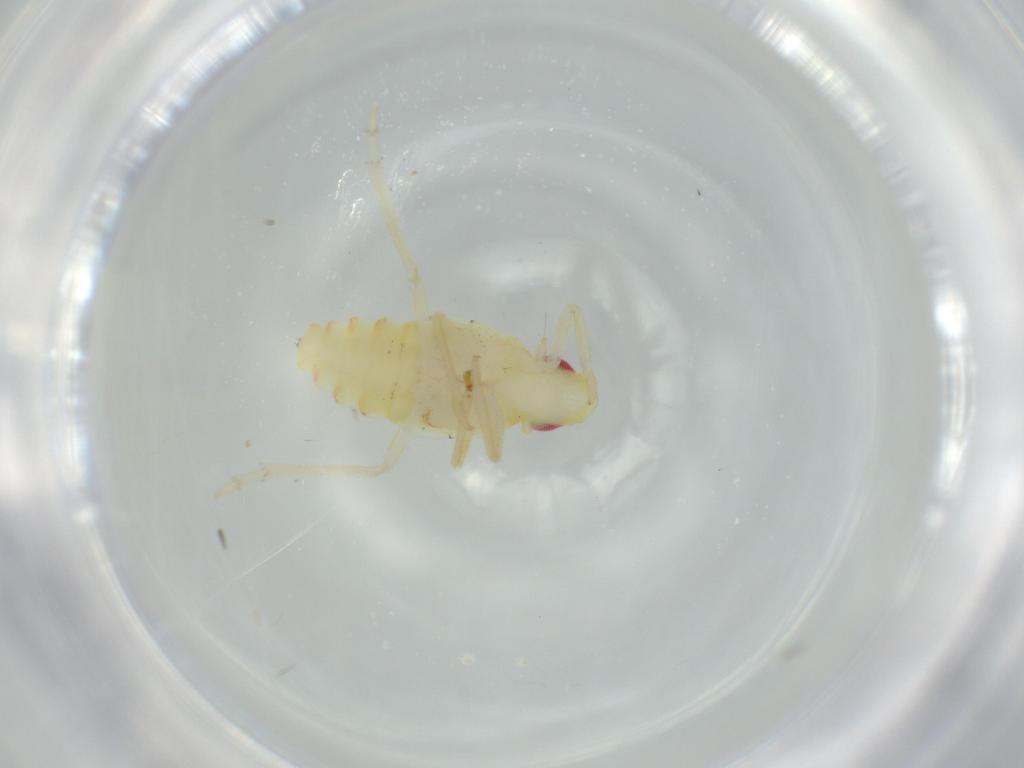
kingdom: Animalia
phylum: Arthropoda
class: Insecta
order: Hemiptera
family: Tropiduchidae
